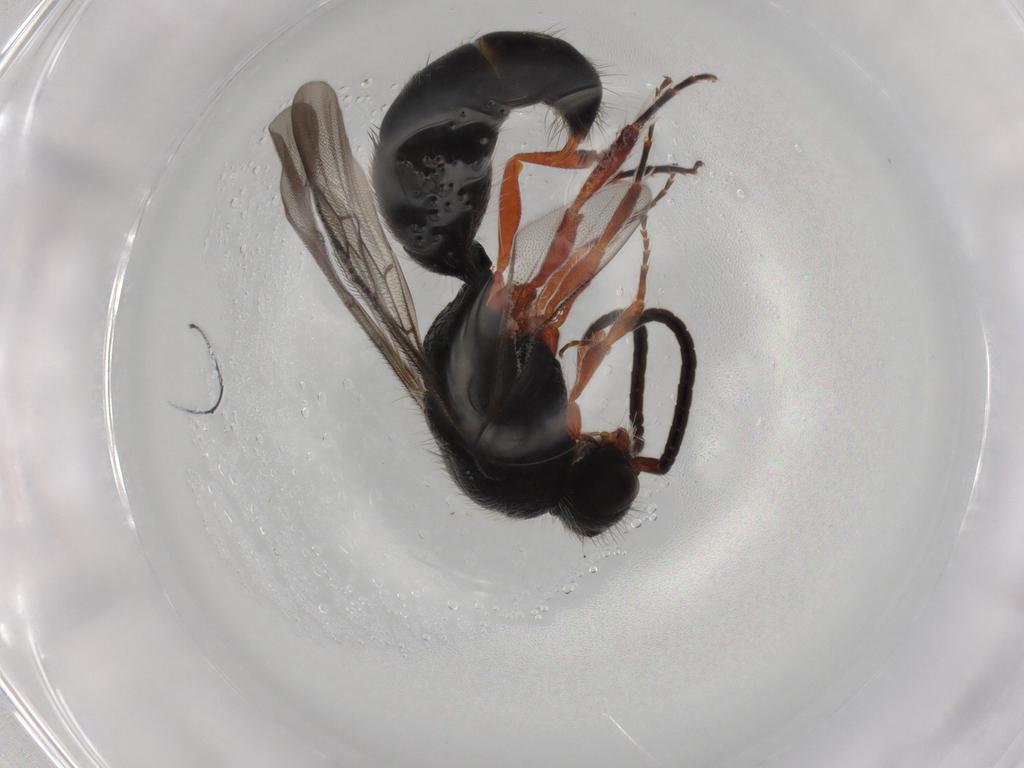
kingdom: Animalia
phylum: Arthropoda
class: Insecta
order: Hymenoptera
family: Mutillidae
